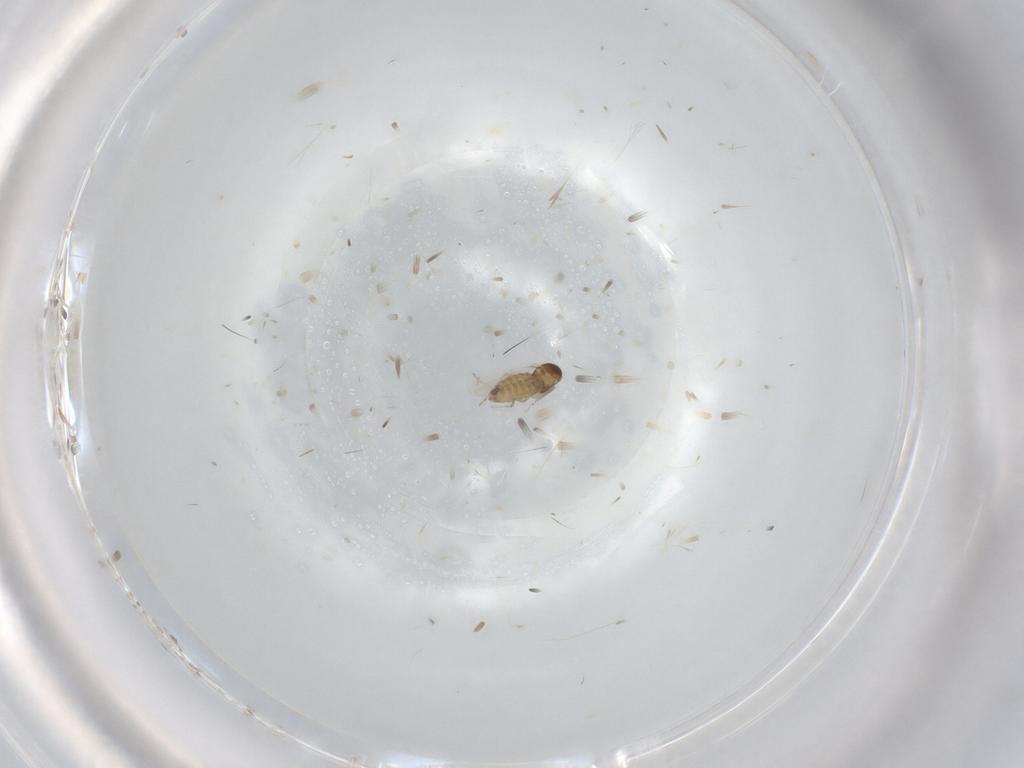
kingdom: Animalia
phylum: Arthropoda
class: Insecta
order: Diptera
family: Cecidomyiidae
